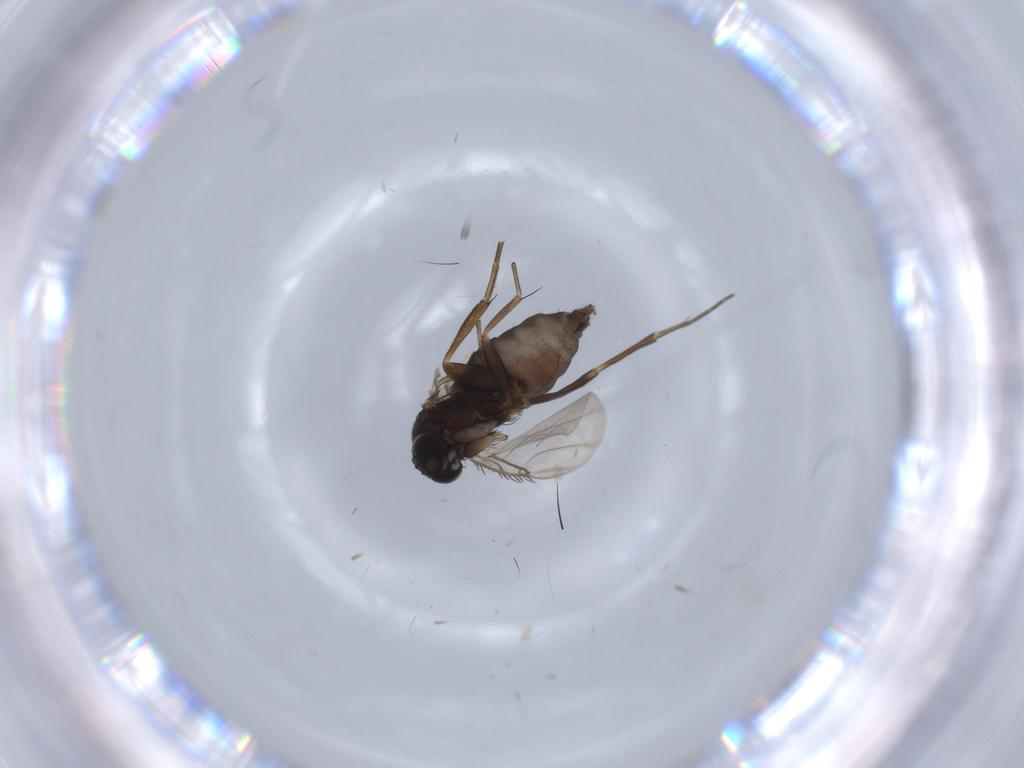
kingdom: Animalia
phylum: Arthropoda
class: Insecta
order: Diptera
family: Phoridae
